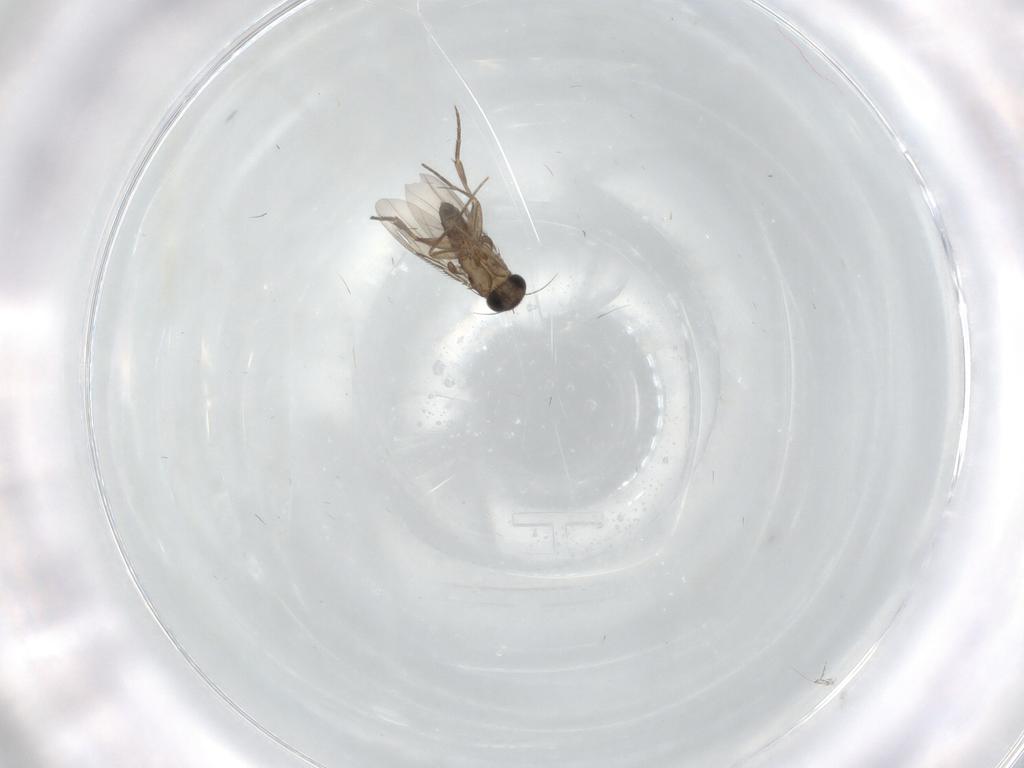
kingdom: Animalia
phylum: Arthropoda
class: Insecta
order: Diptera
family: Phoridae
